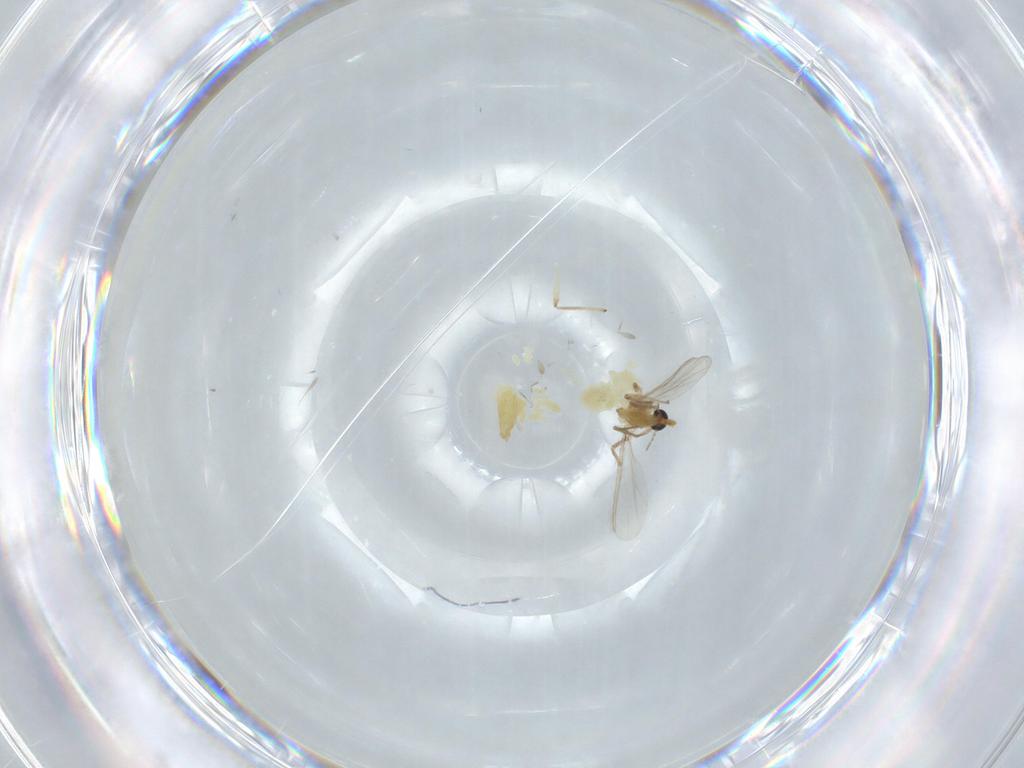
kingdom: Animalia
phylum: Arthropoda
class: Insecta
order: Diptera
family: Chironomidae
